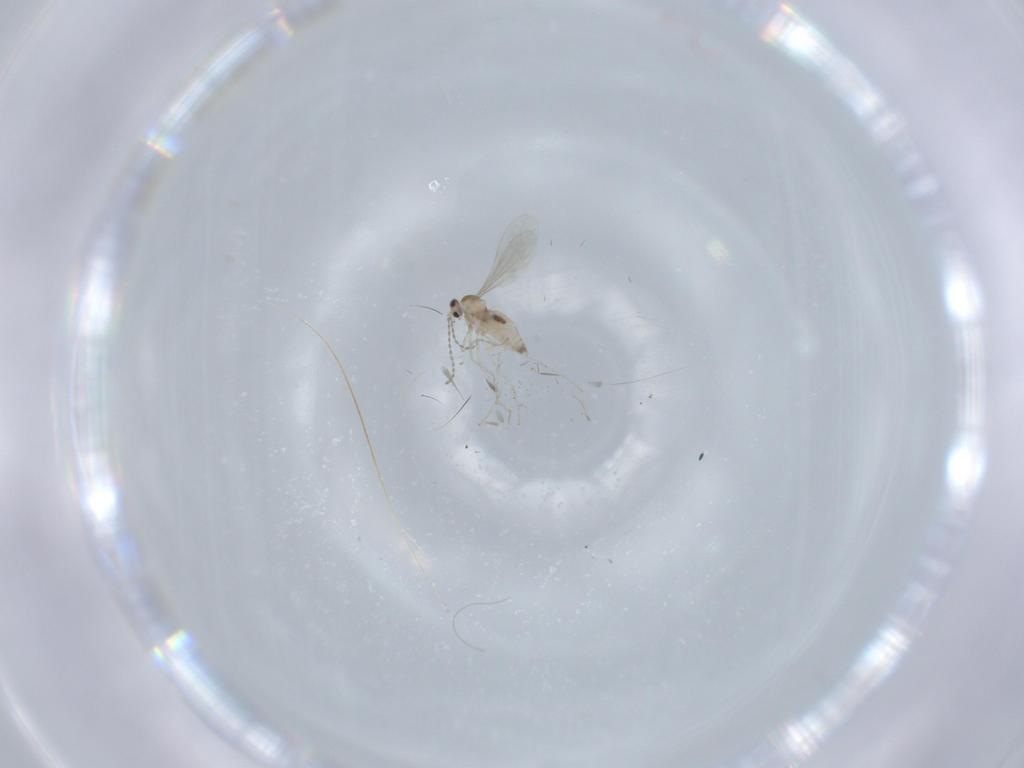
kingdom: Animalia
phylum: Arthropoda
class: Insecta
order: Diptera
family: Cecidomyiidae
